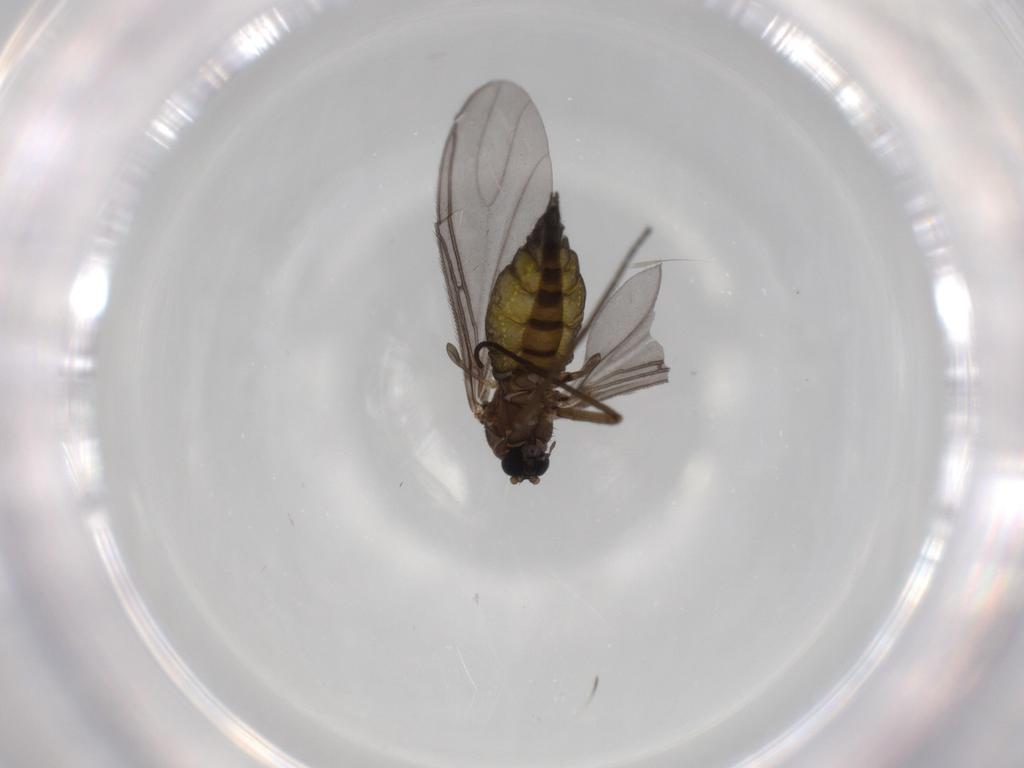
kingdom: Animalia
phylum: Arthropoda
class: Insecta
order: Diptera
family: Sciaridae
